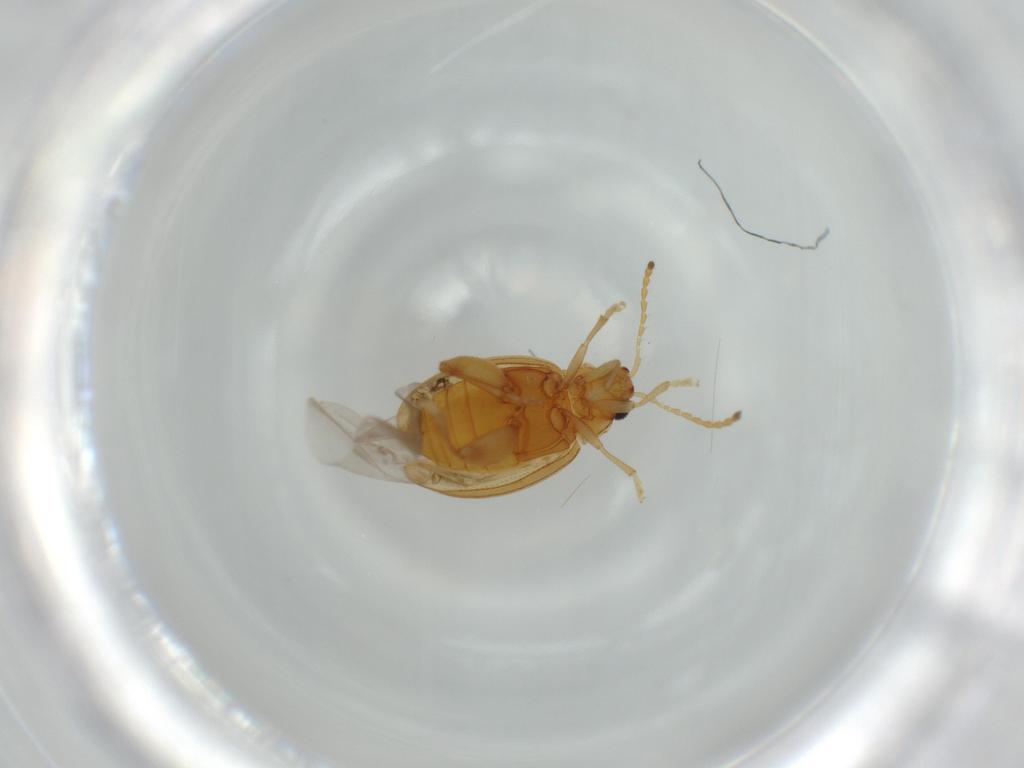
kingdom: Animalia
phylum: Arthropoda
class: Insecta
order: Coleoptera
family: Chrysomelidae
